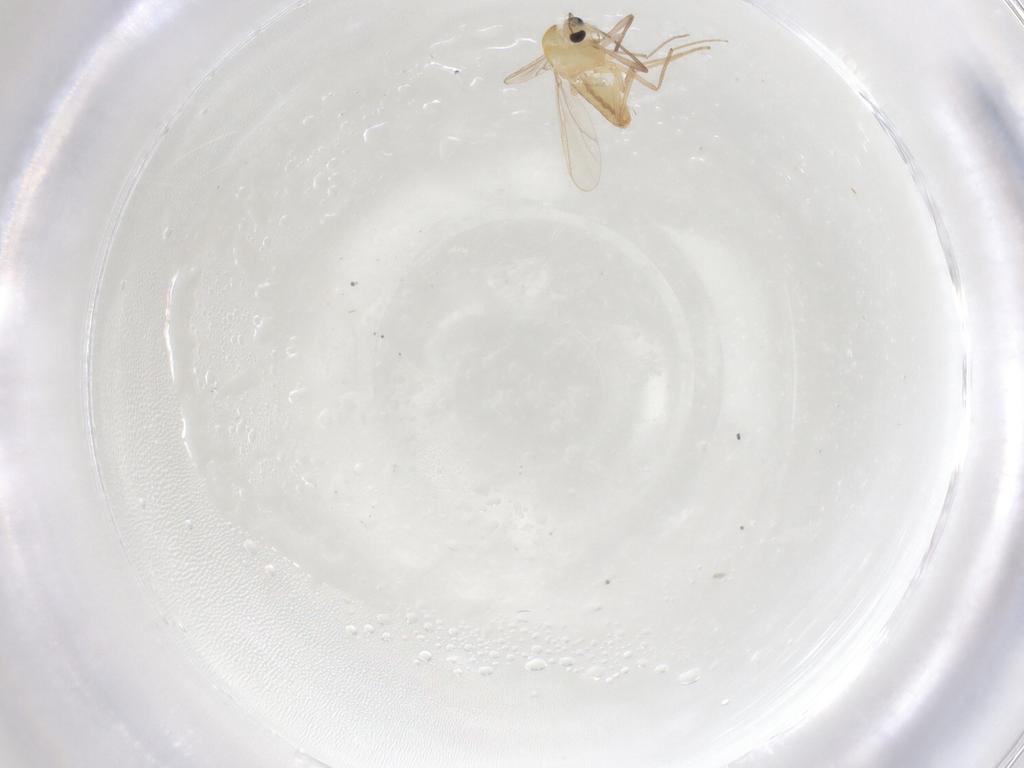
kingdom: Animalia
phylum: Arthropoda
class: Insecta
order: Diptera
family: Chironomidae
